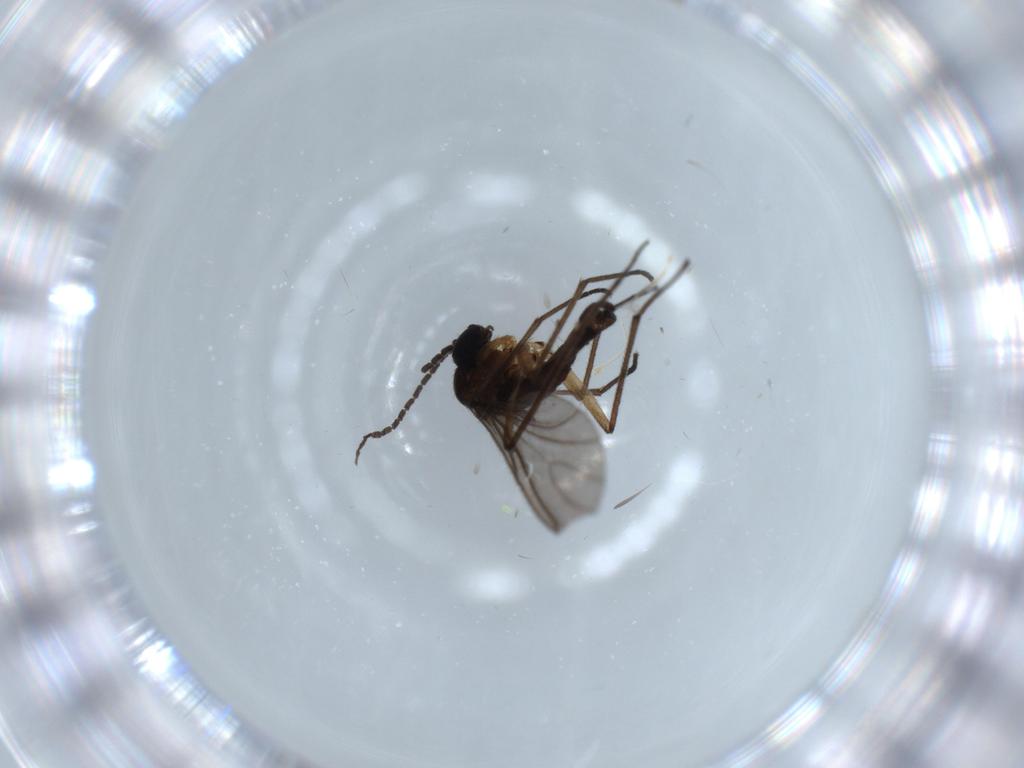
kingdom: Animalia
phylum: Arthropoda
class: Insecta
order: Diptera
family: Sciaridae
